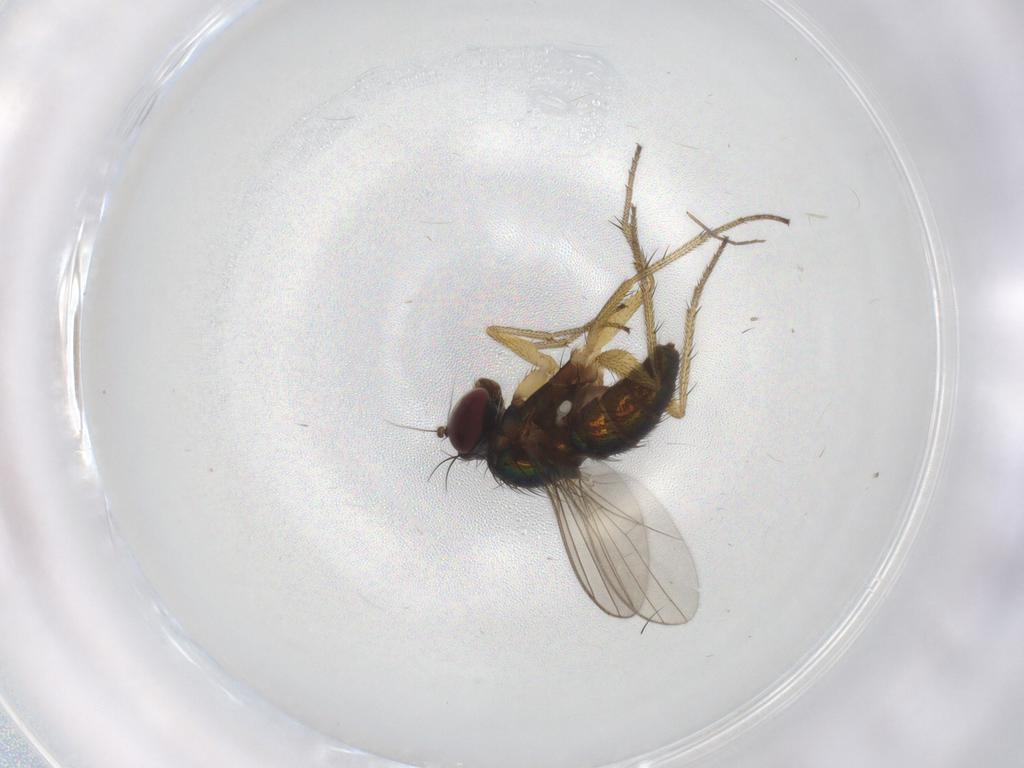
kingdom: Animalia
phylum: Arthropoda
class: Insecta
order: Diptera
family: Dolichopodidae
